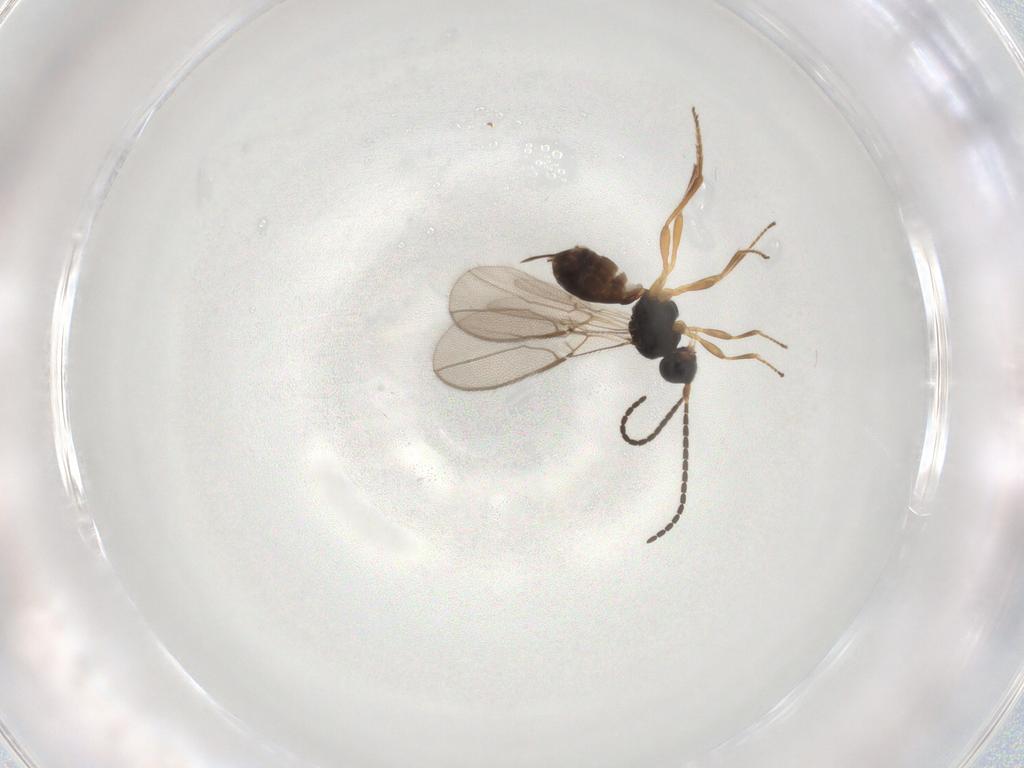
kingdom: Animalia
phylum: Arthropoda
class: Insecta
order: Hymenoptera
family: Braconidae
